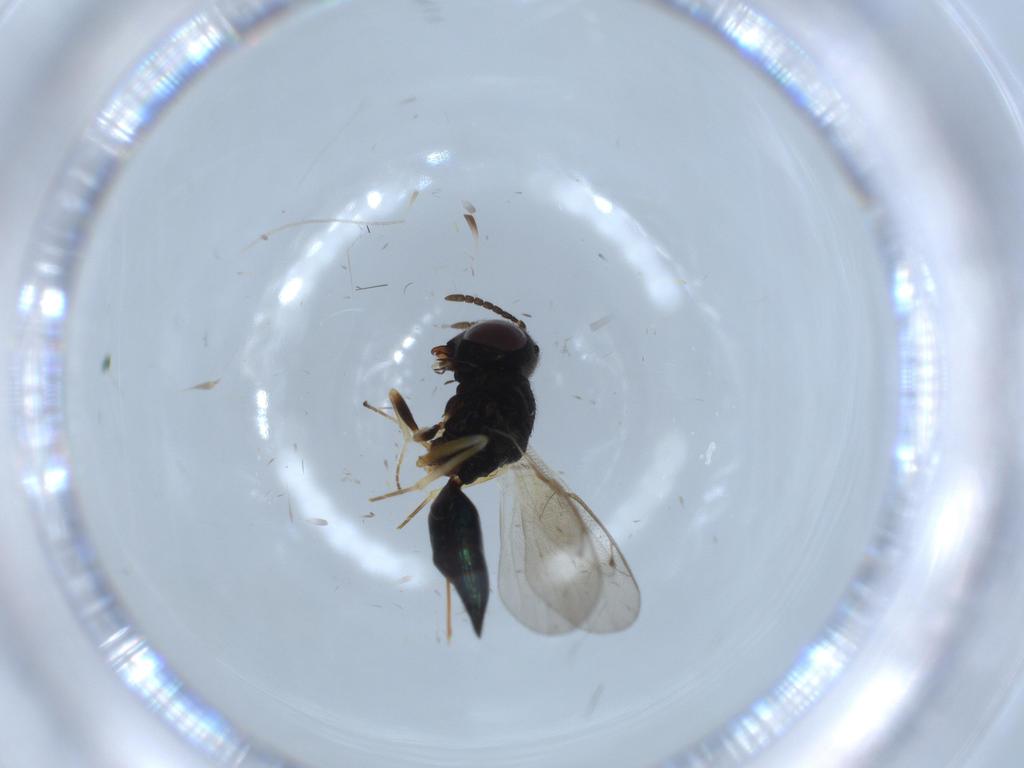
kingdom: Animalia
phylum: Arthropoda
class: Insecta
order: Hymenoptera
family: Pteromalidae
